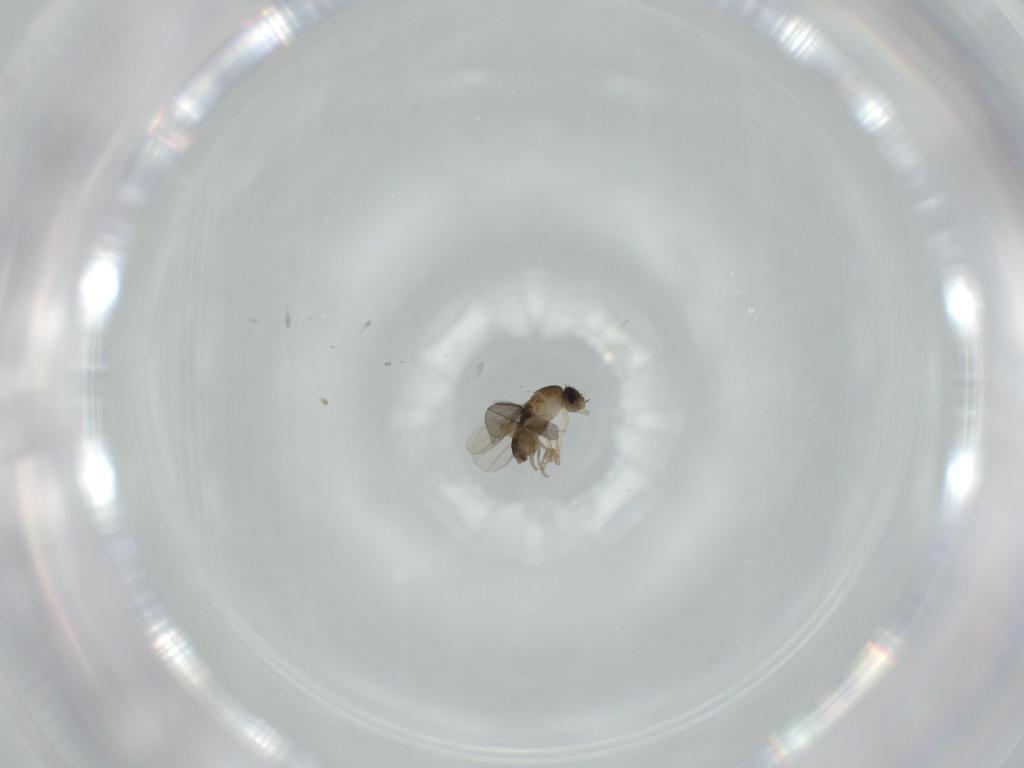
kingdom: Animalia
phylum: Arthropoda
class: Insecta
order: Diptera
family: Phoridae
